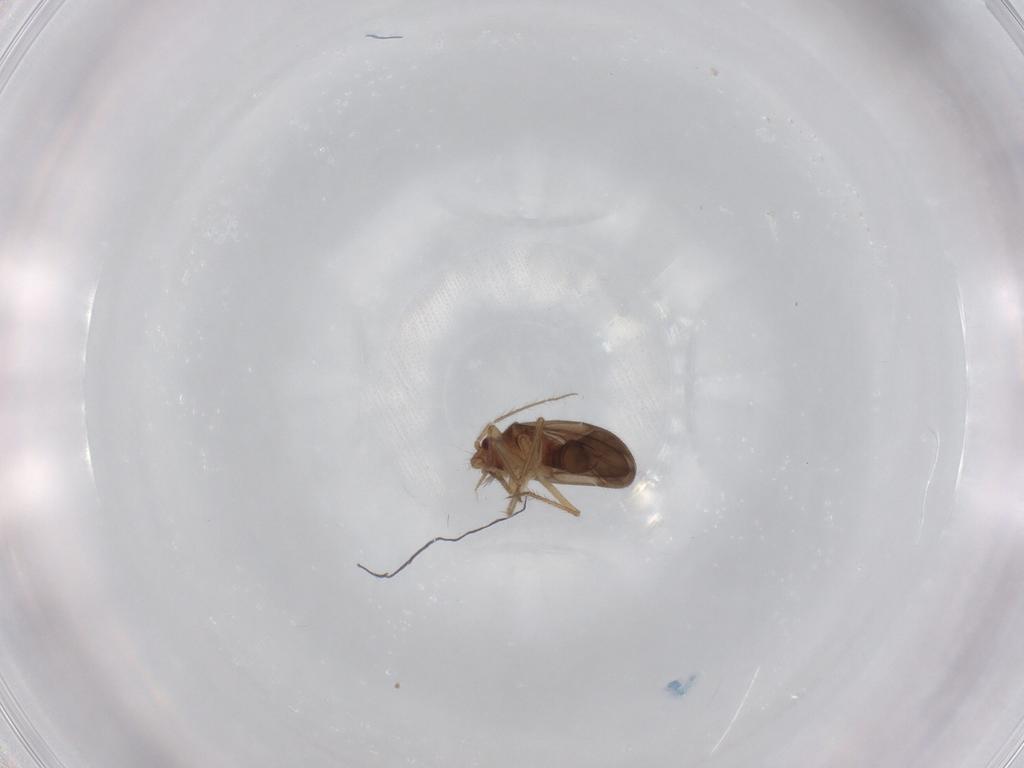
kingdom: Animalia
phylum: Arthropoda
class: Insecta
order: Hemiptera
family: Ceratocombidae
